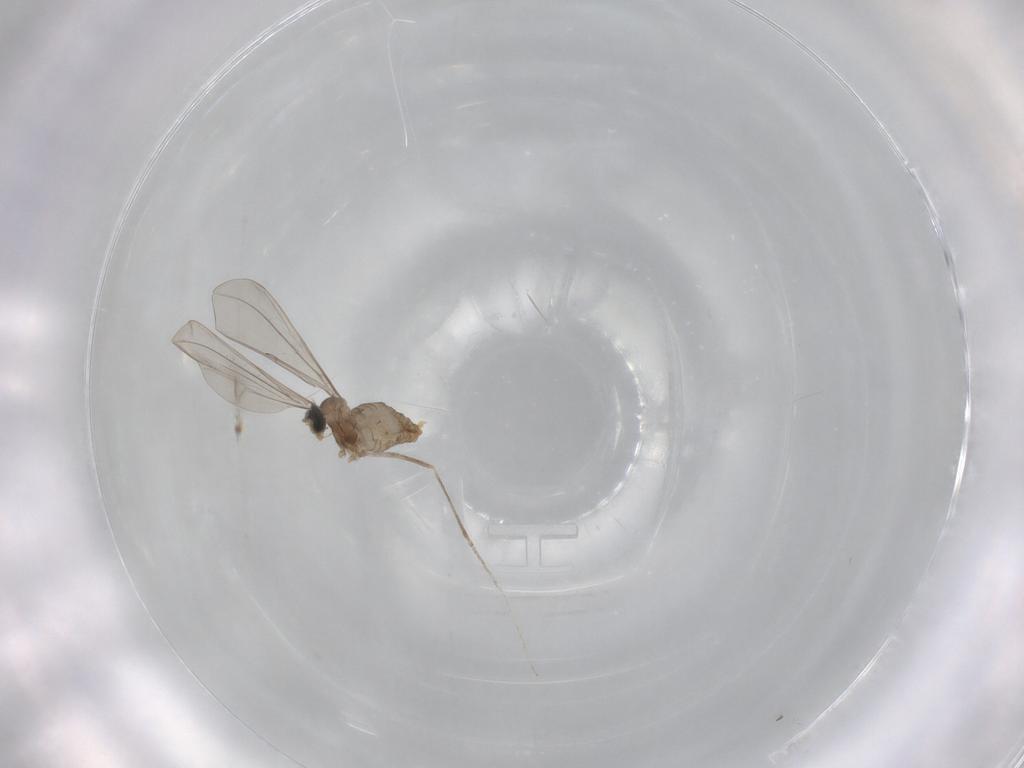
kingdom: Animalia
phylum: Arthropoda
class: Insecta
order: Diptera
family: Cecidomyiidae
